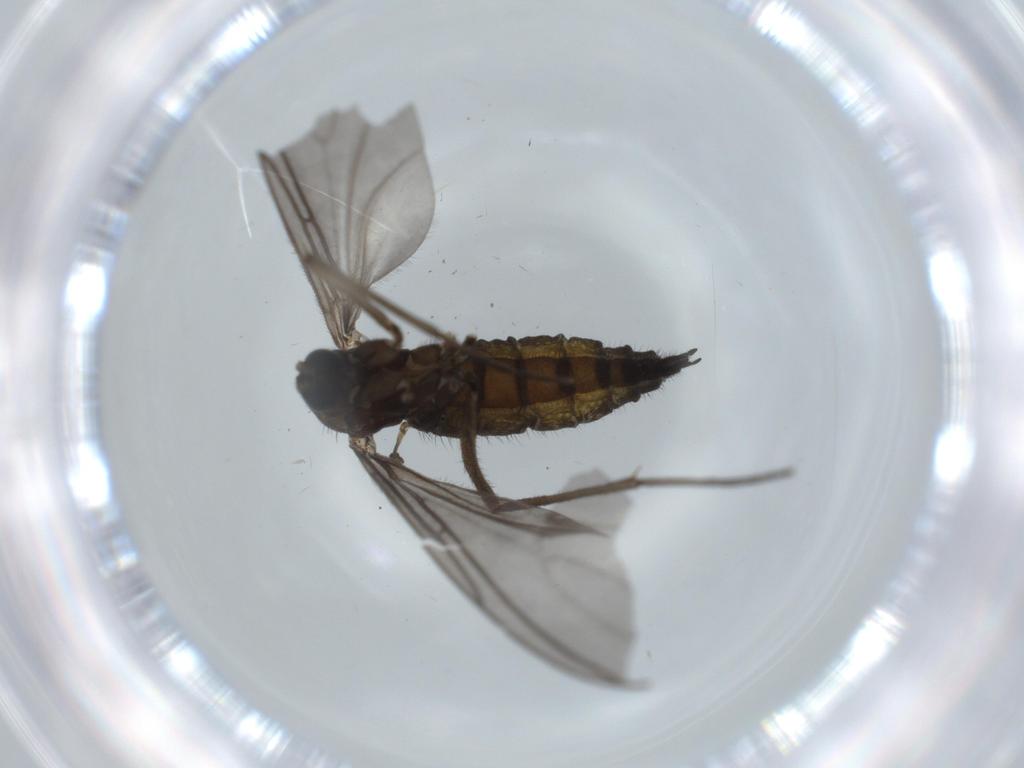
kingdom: Animalia
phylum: Arthropoda
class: Insecta
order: Diptera
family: Sciaridae
